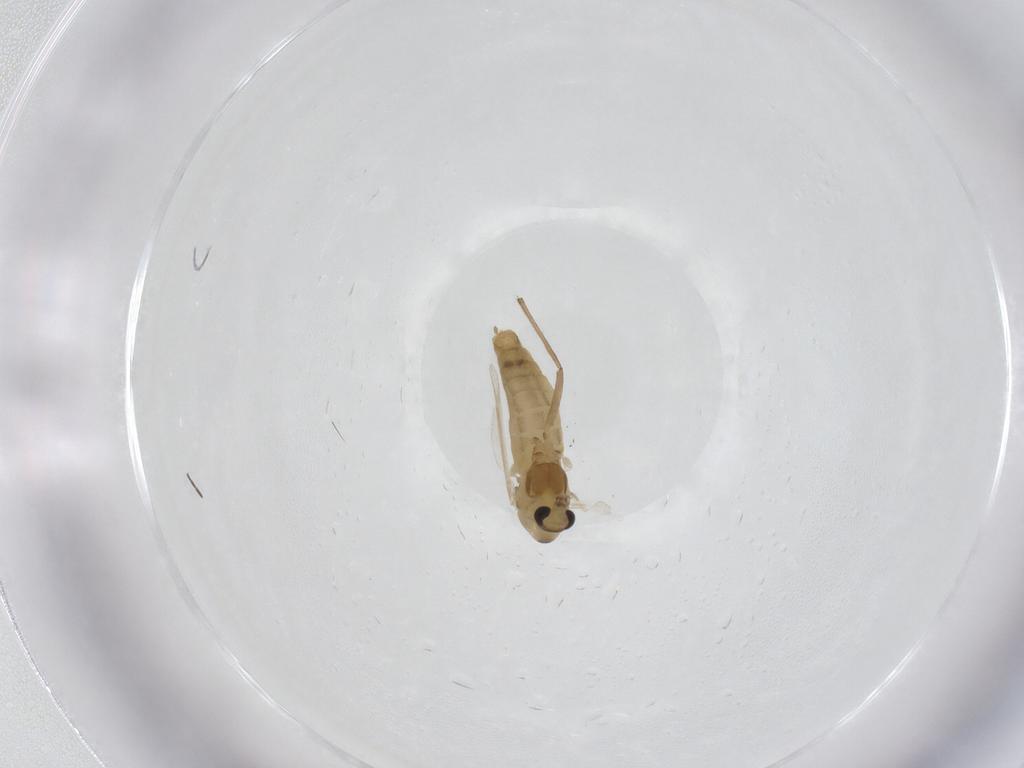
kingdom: Animalia
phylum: Arthropoda
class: Insecta
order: Diptera
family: Chironomidae
